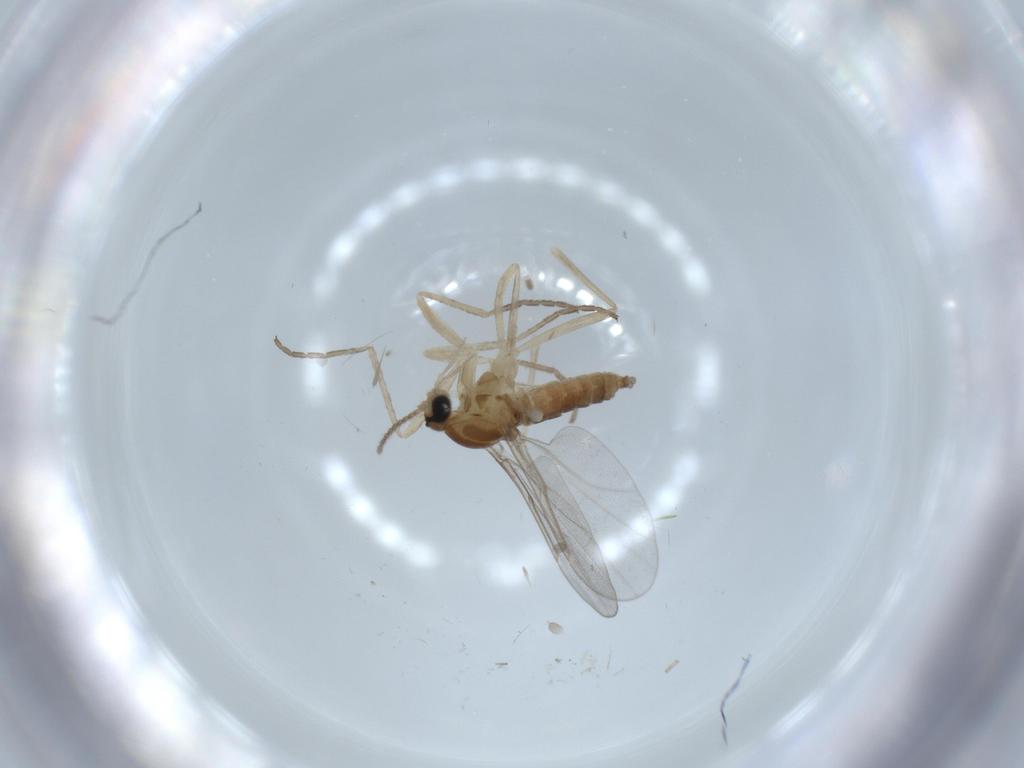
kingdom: Animalia
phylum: Arthropoda
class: Insecta
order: Diptera
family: Cecidomyiidae
